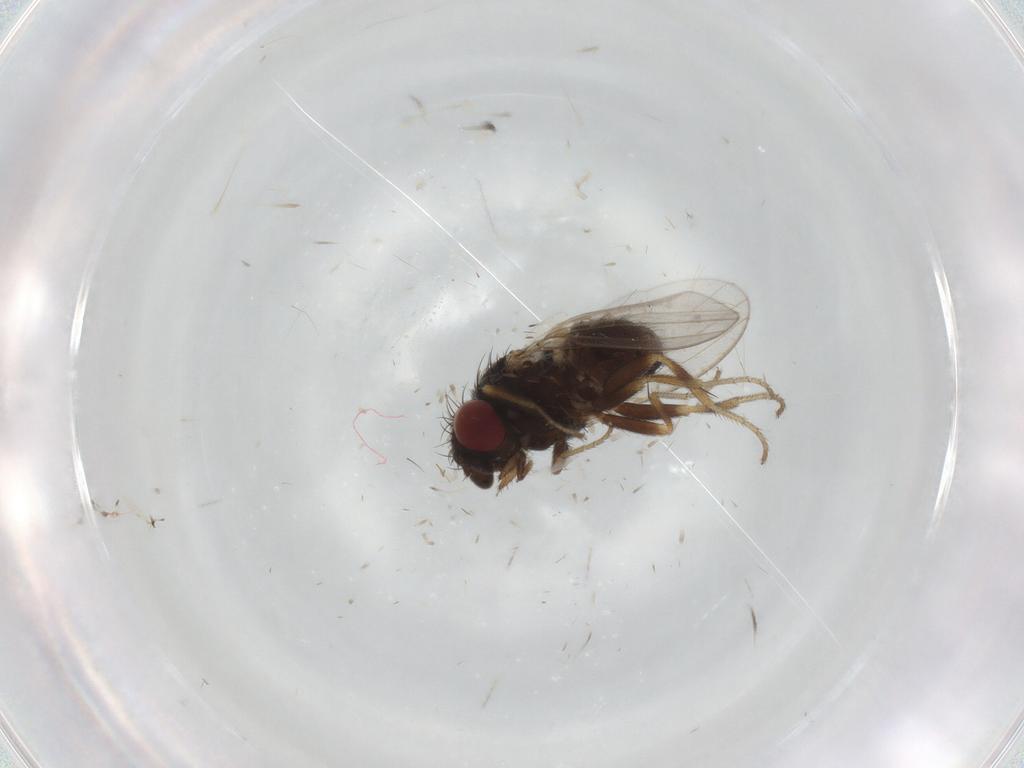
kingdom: Animalia
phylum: Arthropoda
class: Insecta
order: Diptera
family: Milichiidae
